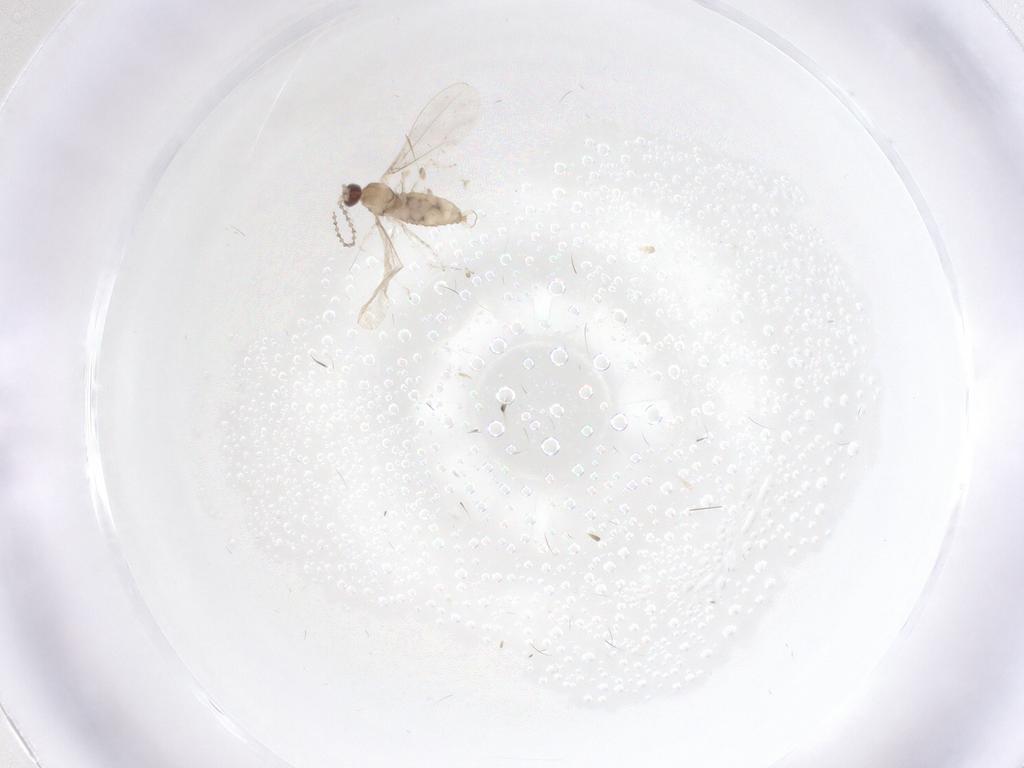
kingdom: Animalia
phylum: Arthropoda
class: Insecta
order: Diptera
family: Cecidomyiidae
